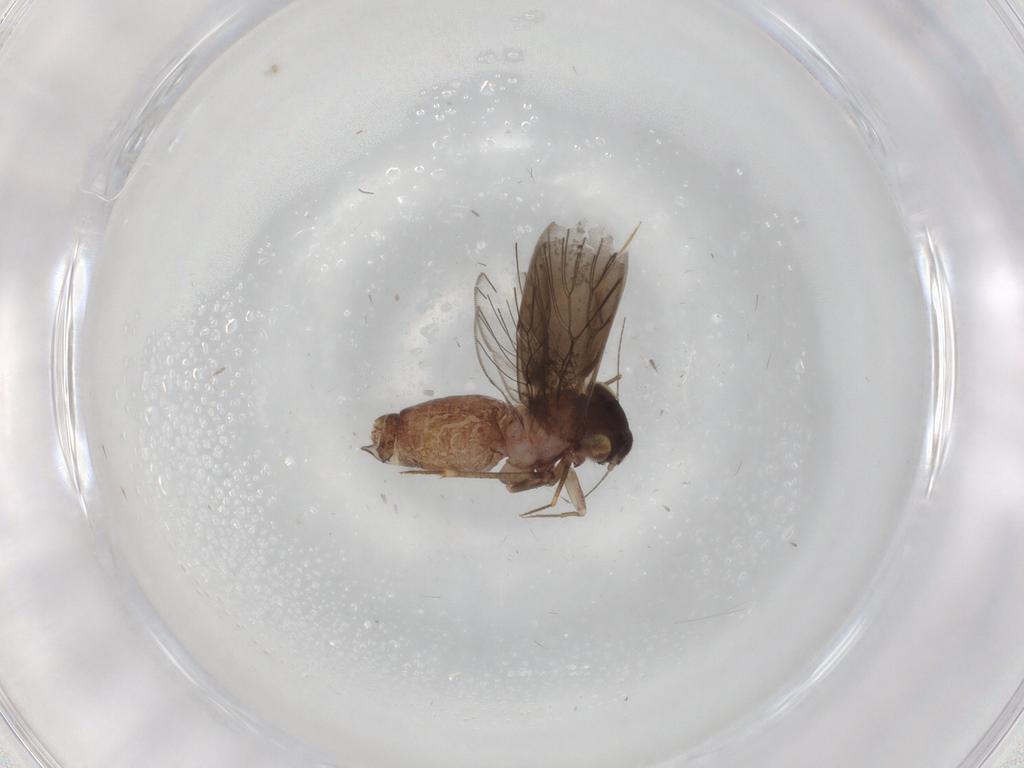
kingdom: Animalia
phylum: Arthropoda
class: Insecta
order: Psocodea
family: Lepidopsocidae
